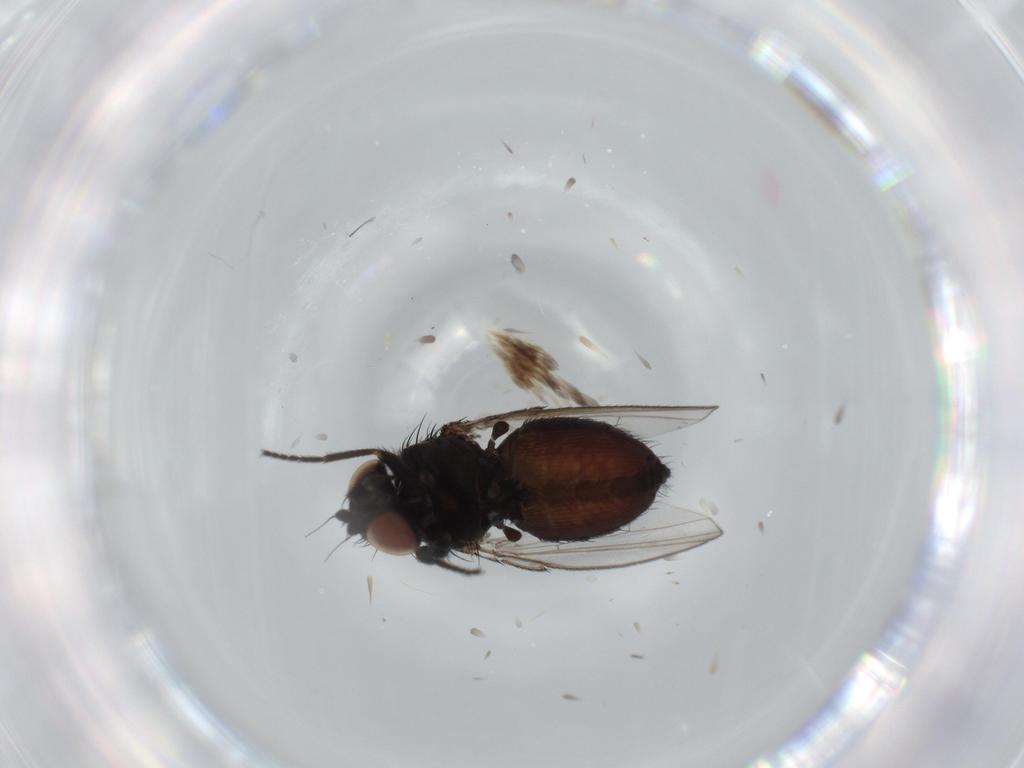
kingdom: Animalia
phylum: Arthropoda
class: Insecta
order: Diptera
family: Milichiidae
